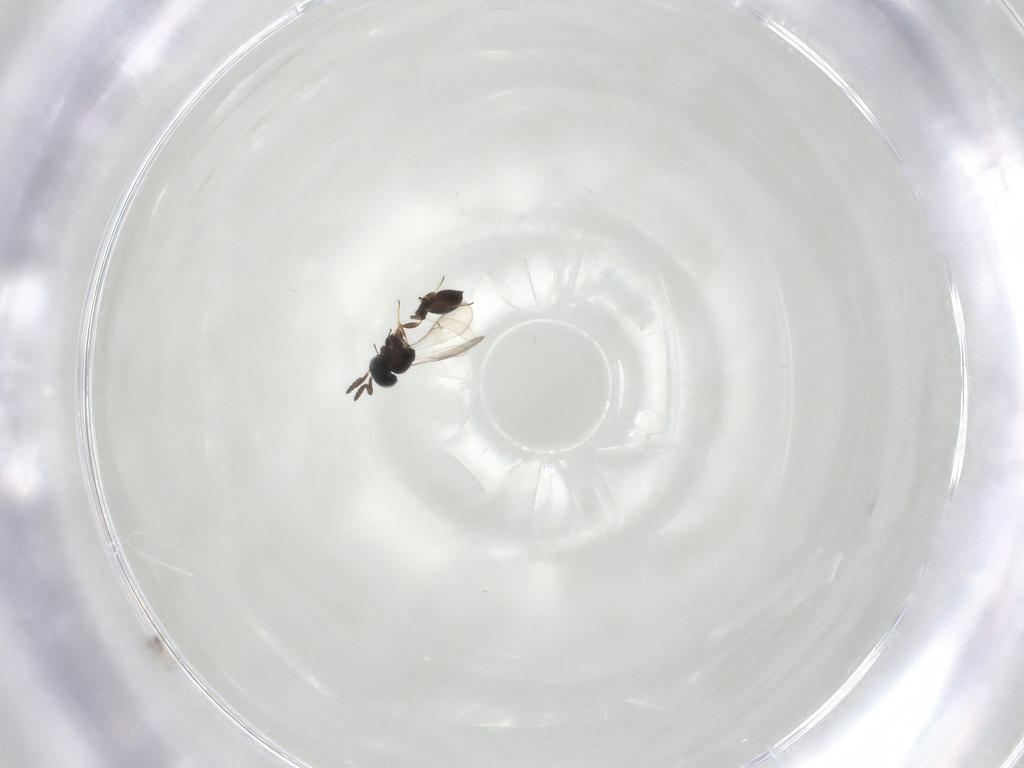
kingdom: Animalia
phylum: Arthropoda
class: Insecta
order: Hymenoptera
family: Scelionidae
